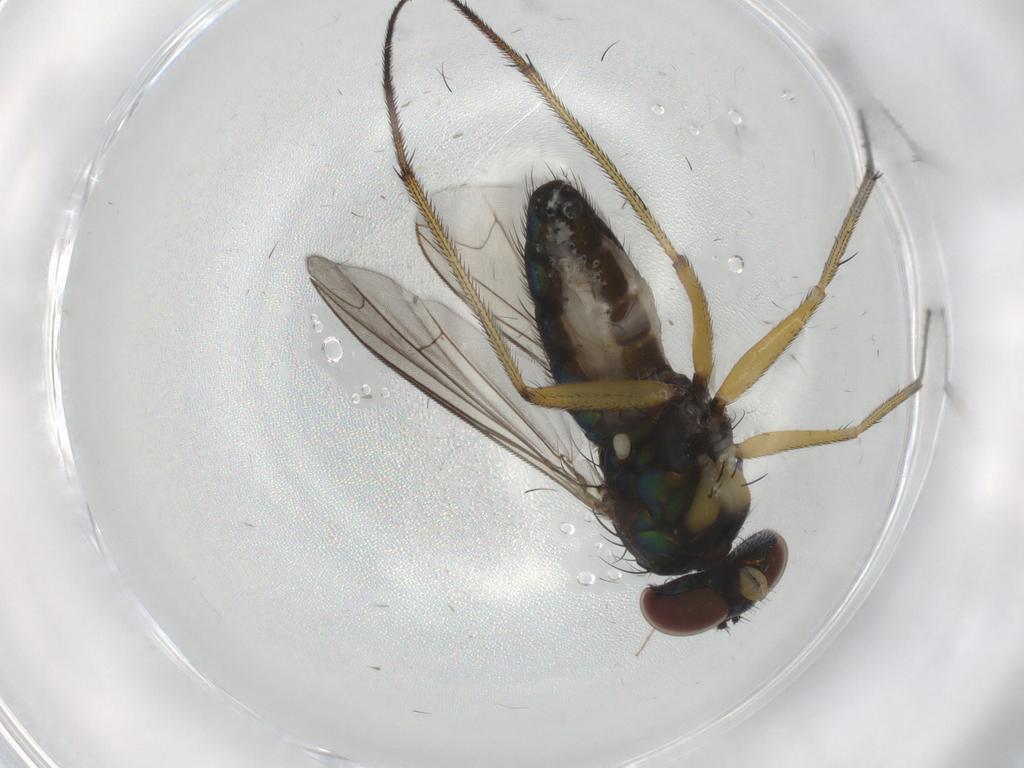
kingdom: Animalia
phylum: Arthropoda
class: Insecta
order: Diptera
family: Dolichopodidae
